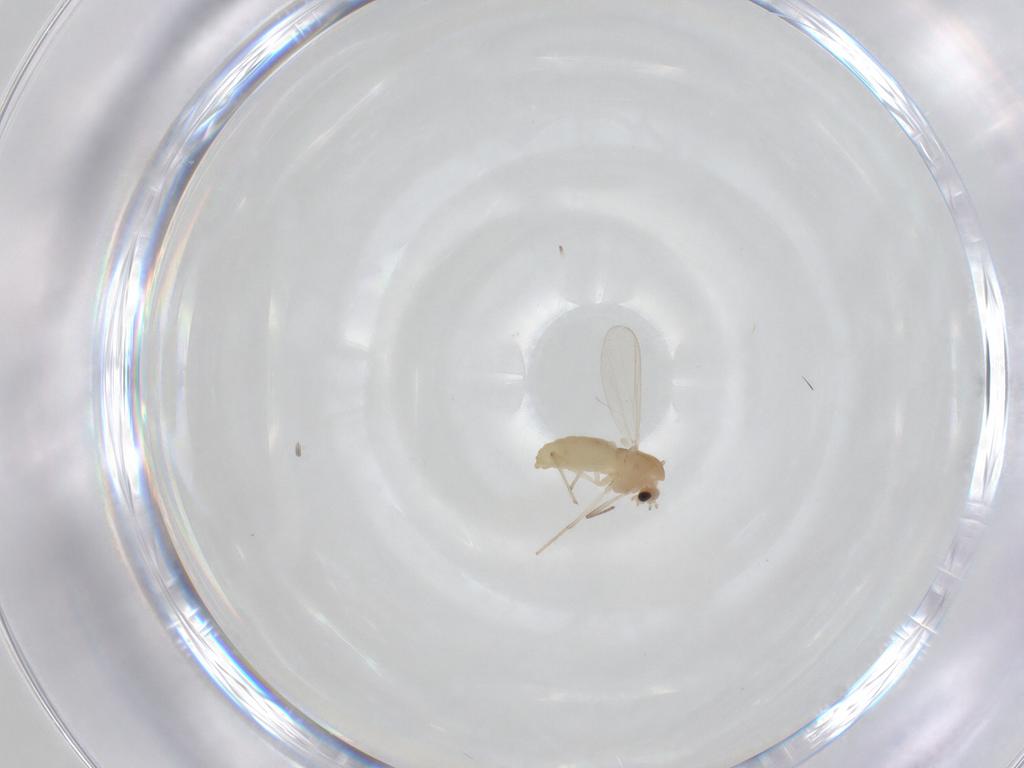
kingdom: Animalia
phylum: Arthropoda
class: Insecta
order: Diptera
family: Chironomidae
